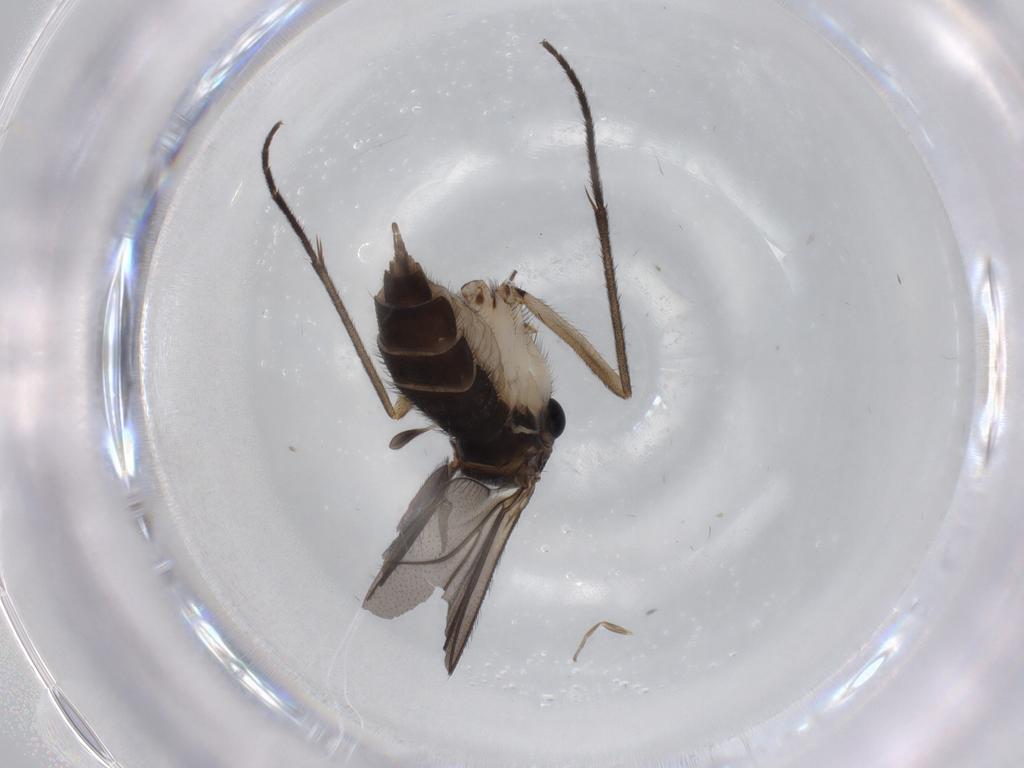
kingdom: Animalia
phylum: Arthropoda
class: Insecta
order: Diptera
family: Sciaridae
